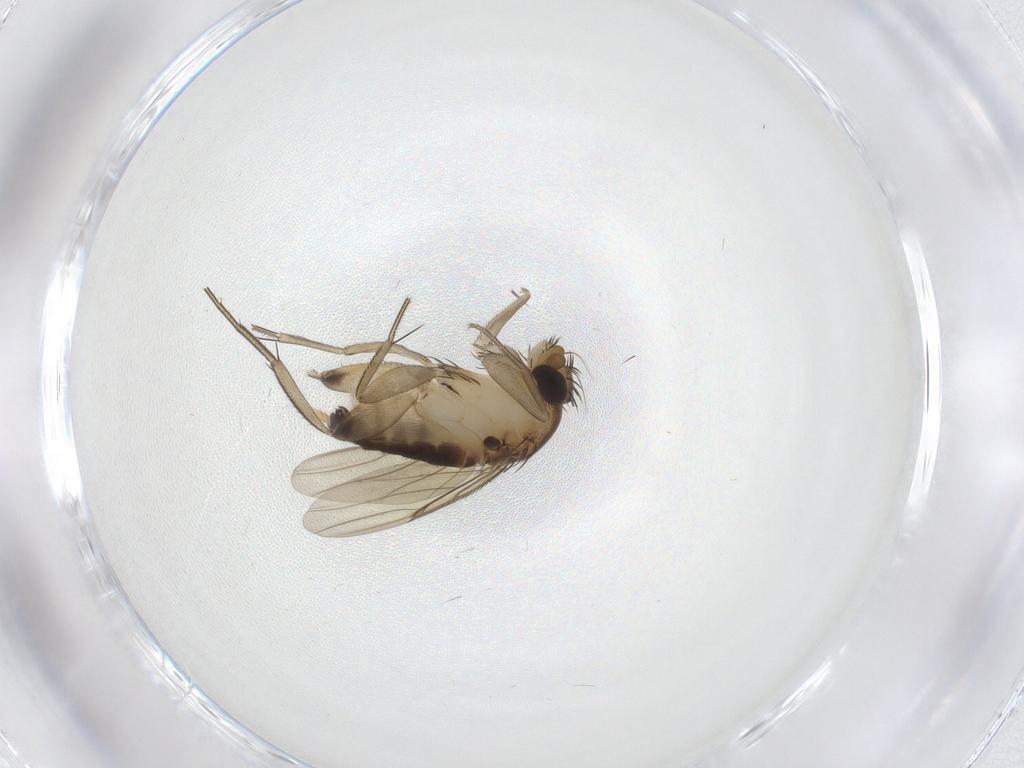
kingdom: Animalia
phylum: Arthropoda
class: Insecta
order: Diptera
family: Phoridae
